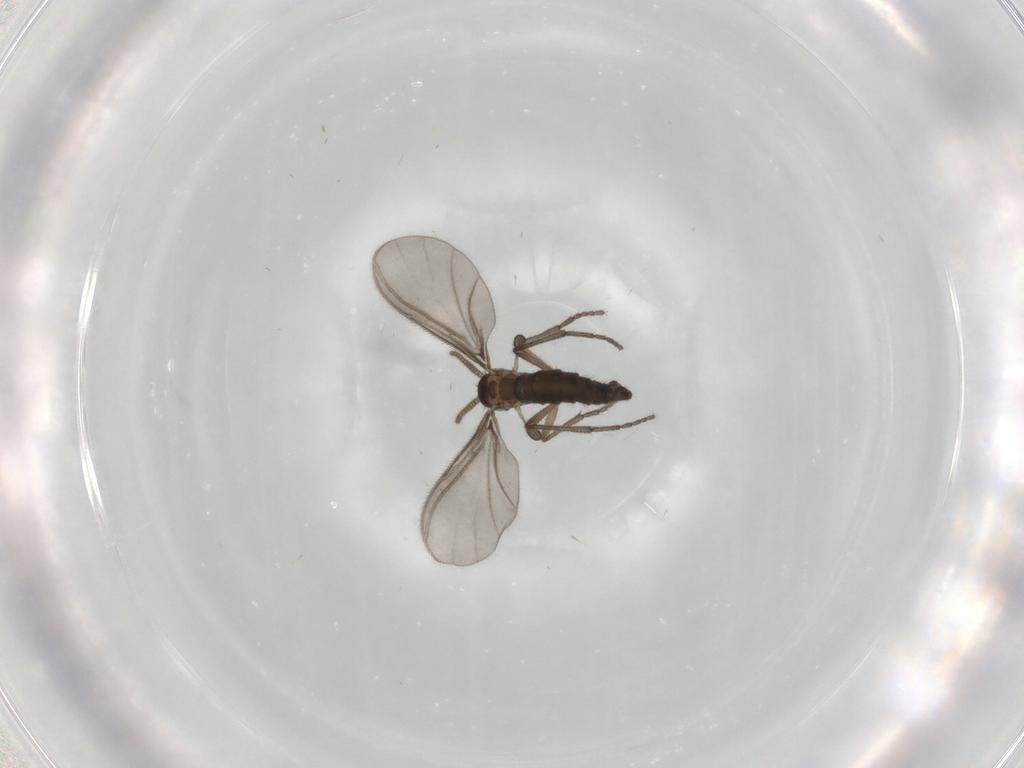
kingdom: Animalia
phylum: Arthropoda
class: Insecta
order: Diptera
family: Sciaridae
